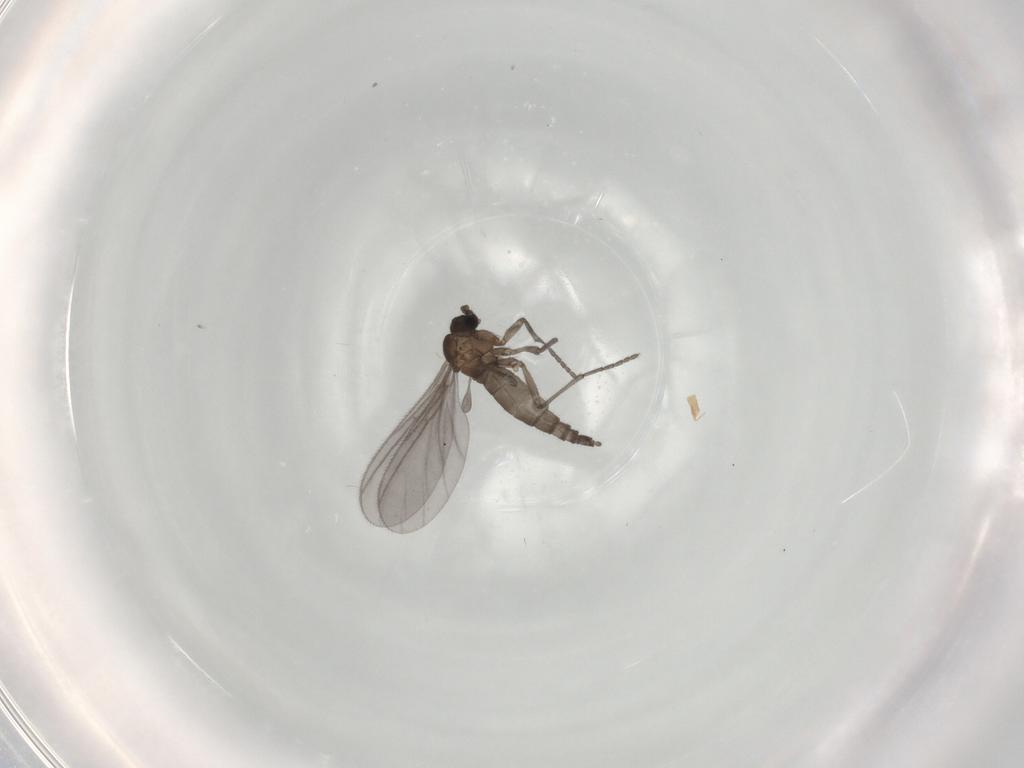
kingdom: Animalia
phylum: Arthropoda
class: Insecta
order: Diptera
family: Sciaridae
